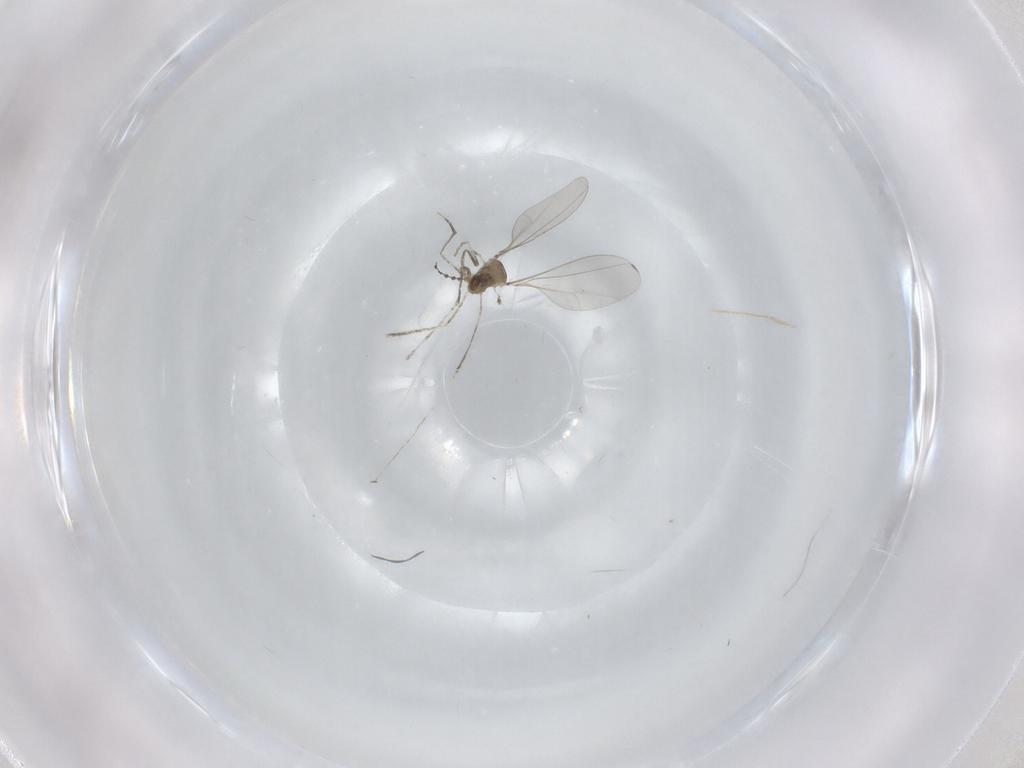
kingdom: Animalia
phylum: Arthropoda
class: Insecta
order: Diptera
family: Cecidomyiidae
